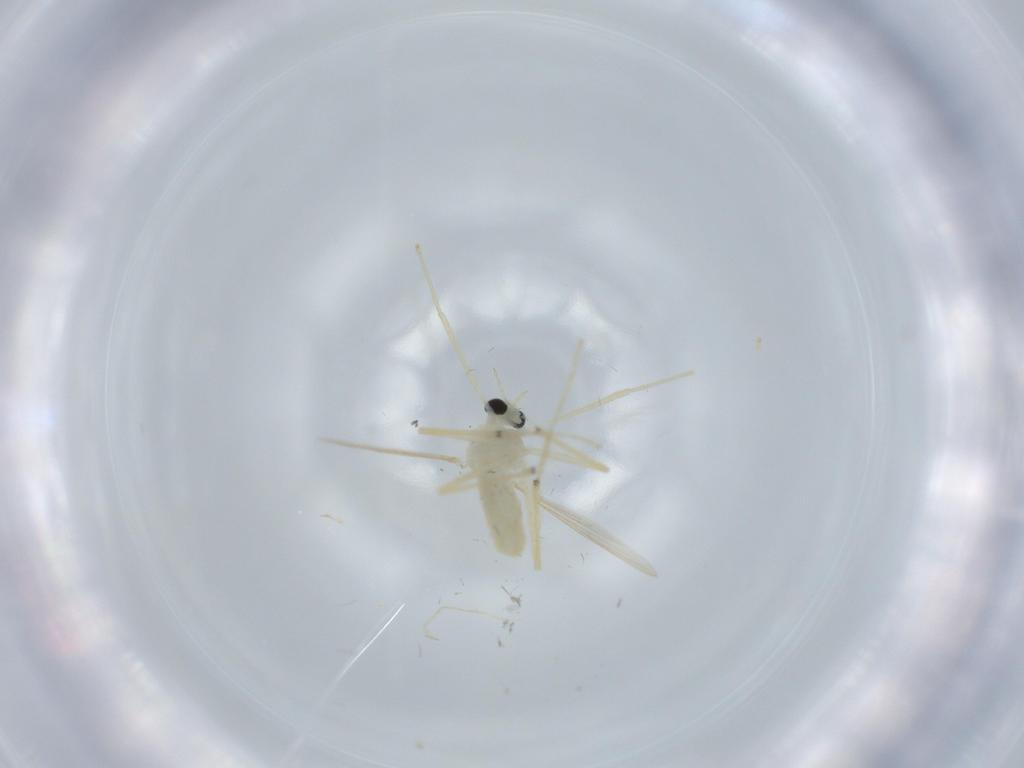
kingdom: Animalia
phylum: Arthropoda
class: Insecta
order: Diptera
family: Chironomidae
